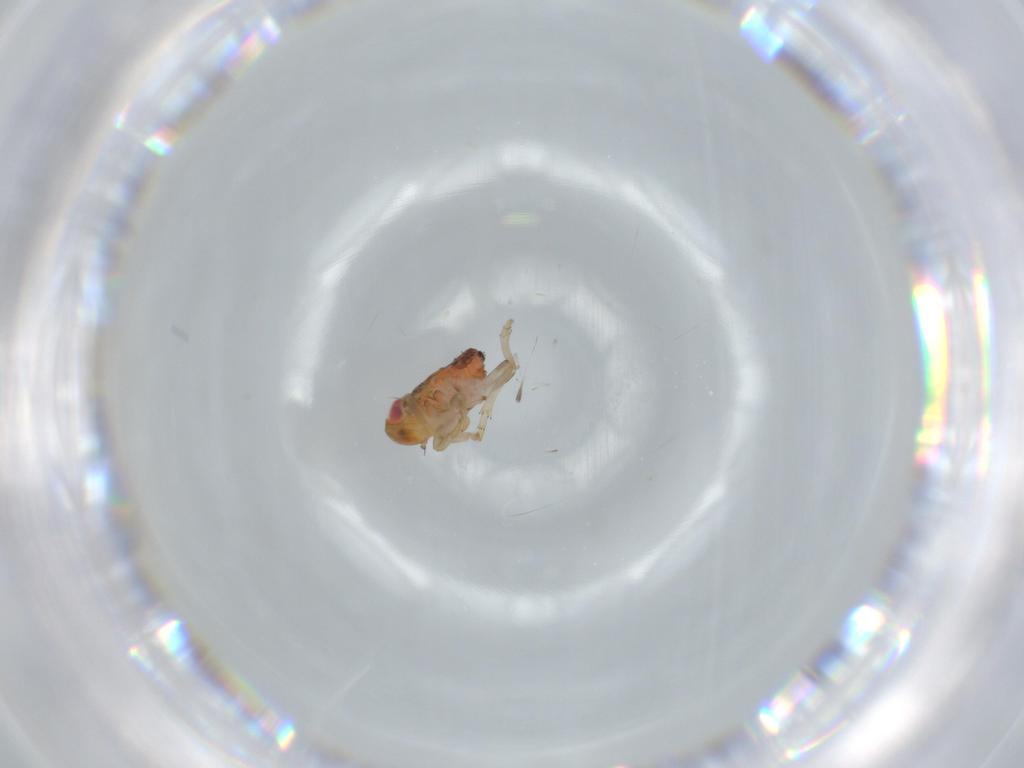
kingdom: Animalia
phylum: Arthropoda
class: Insecta
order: Hemiptera
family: Issidae
